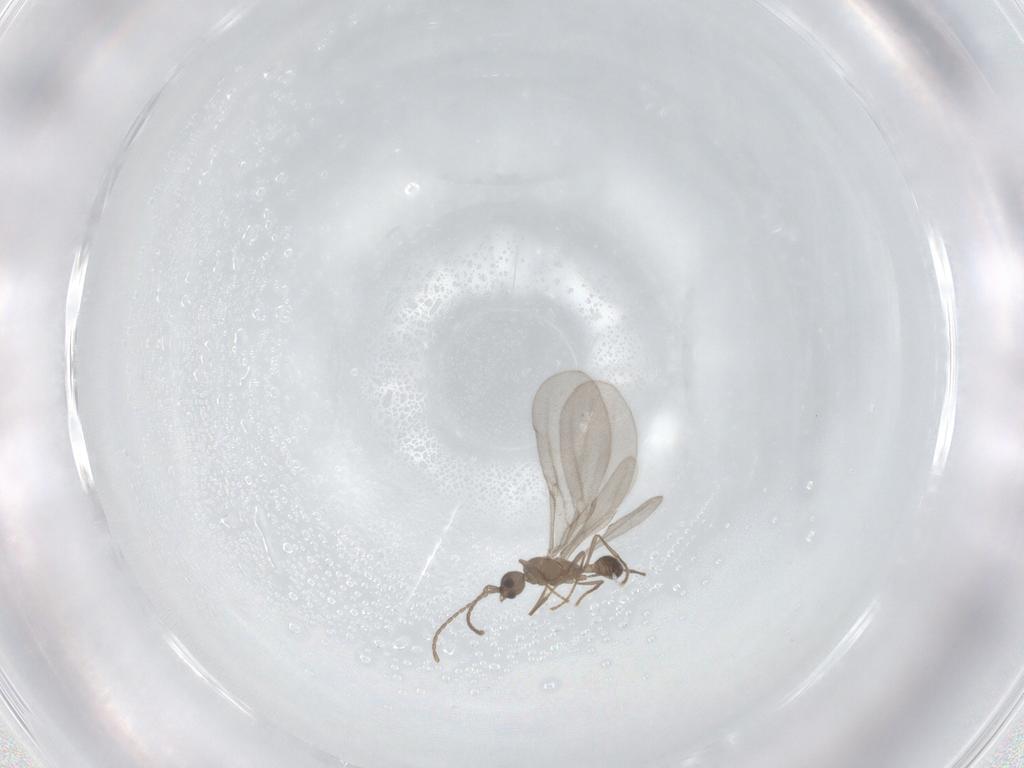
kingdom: Animalia
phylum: Arthropoda
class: Insecta
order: Hymenoptera
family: Formicidae
